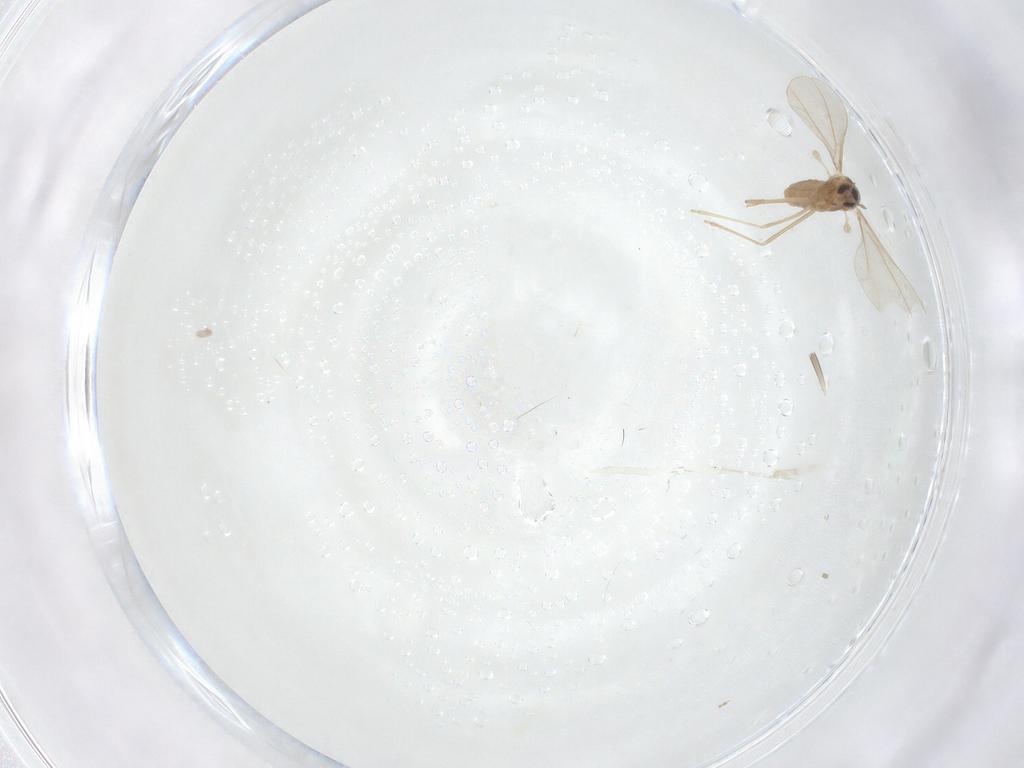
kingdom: Animalia
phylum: Arthropoda
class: Insecta
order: Diptera
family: Cecidomyiidae
